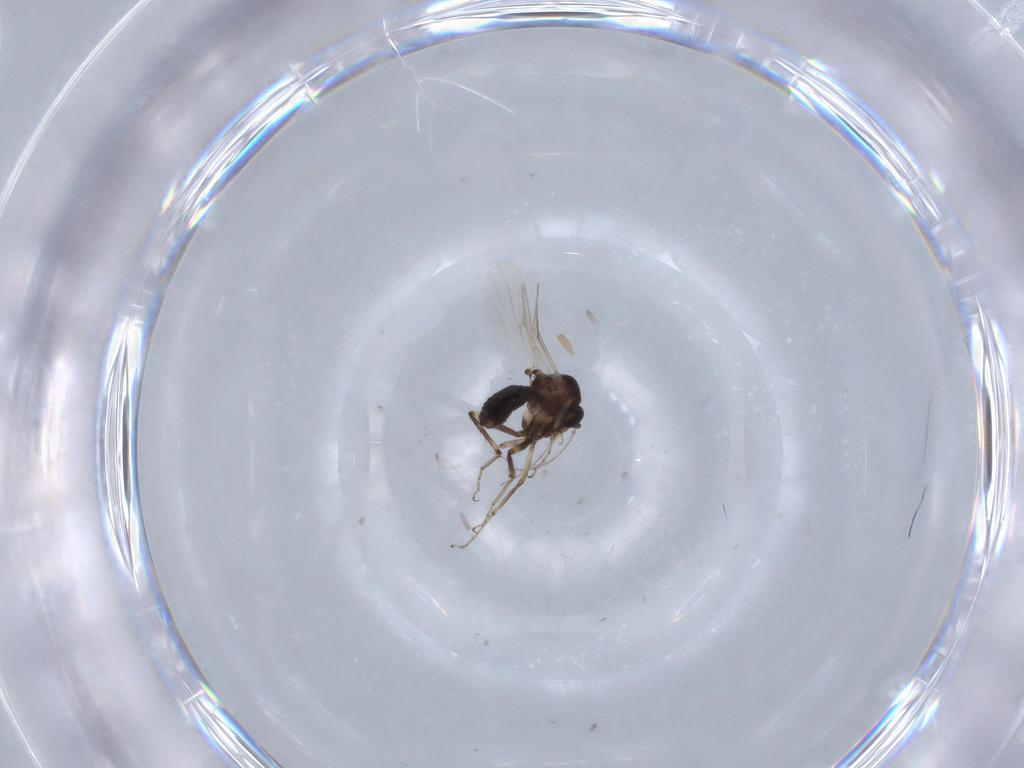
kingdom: Animalia
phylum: Arthropoda
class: Insecta
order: Diptera
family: Ceratopogonidae
